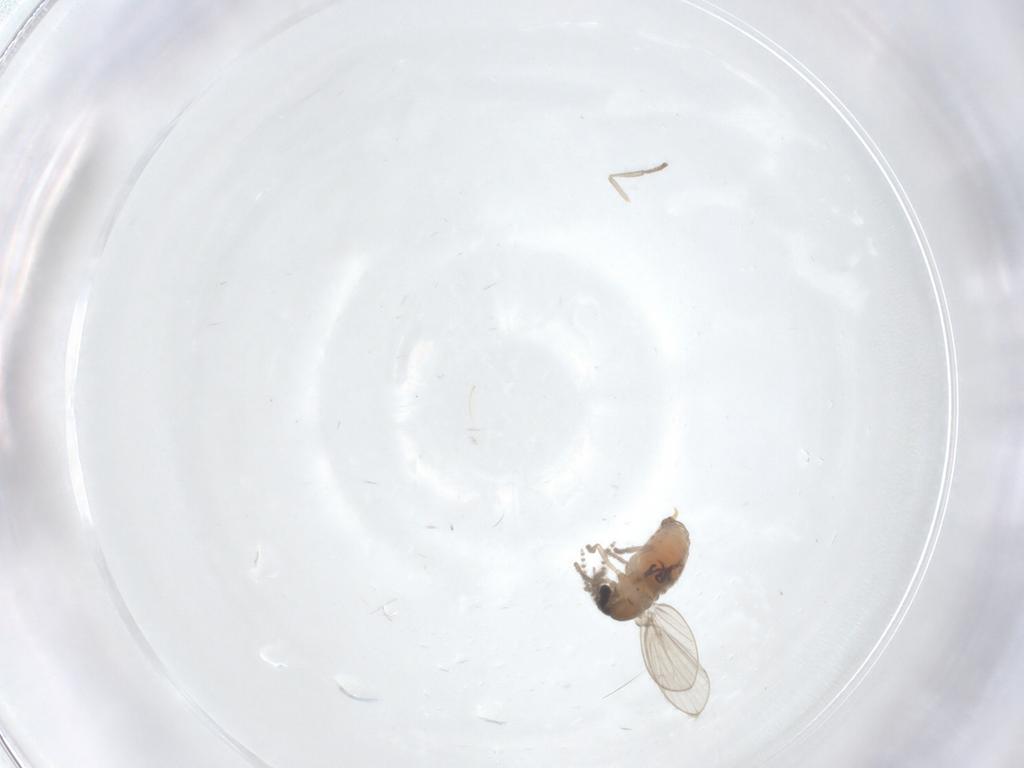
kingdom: Animalia
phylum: Arthropoda
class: Insecta
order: Diptera
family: Psychodidae
